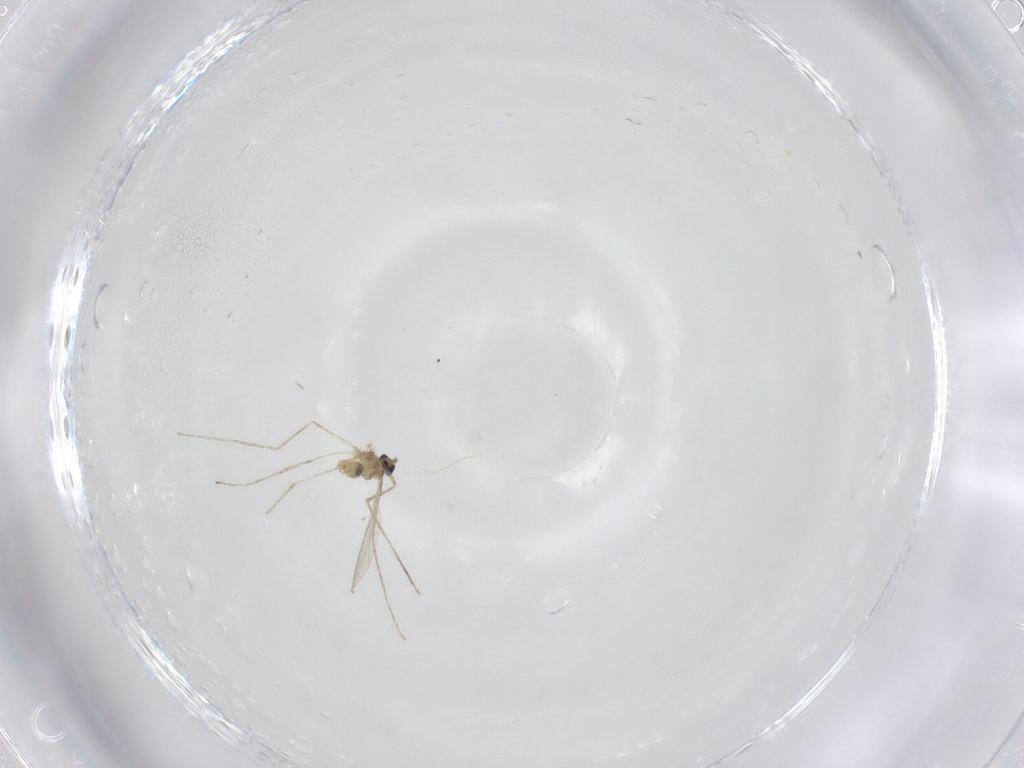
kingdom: Animalia
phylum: Arthropoda
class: Insecta
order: Diptera
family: Cecidomyiidae
